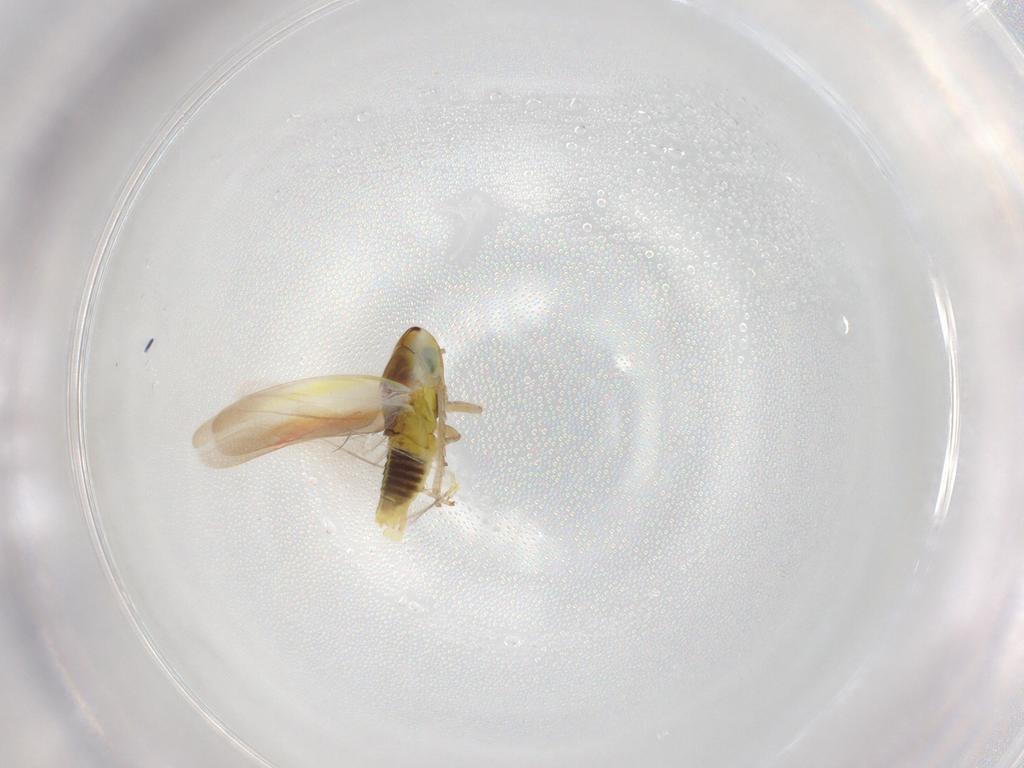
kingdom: Animalia
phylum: Arthropoda
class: Insecta
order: Hemiptera
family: Cicadellidae
